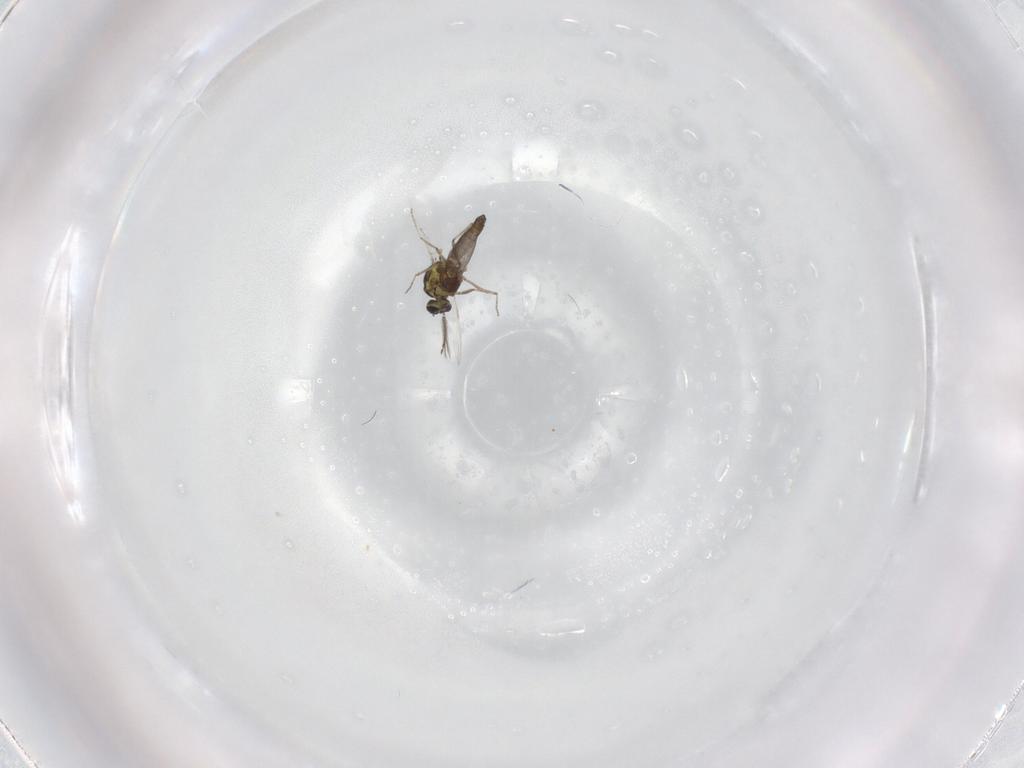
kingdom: Animalia
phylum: Arthropoda
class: Insecta
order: Diptera
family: Ceratopogonidae
